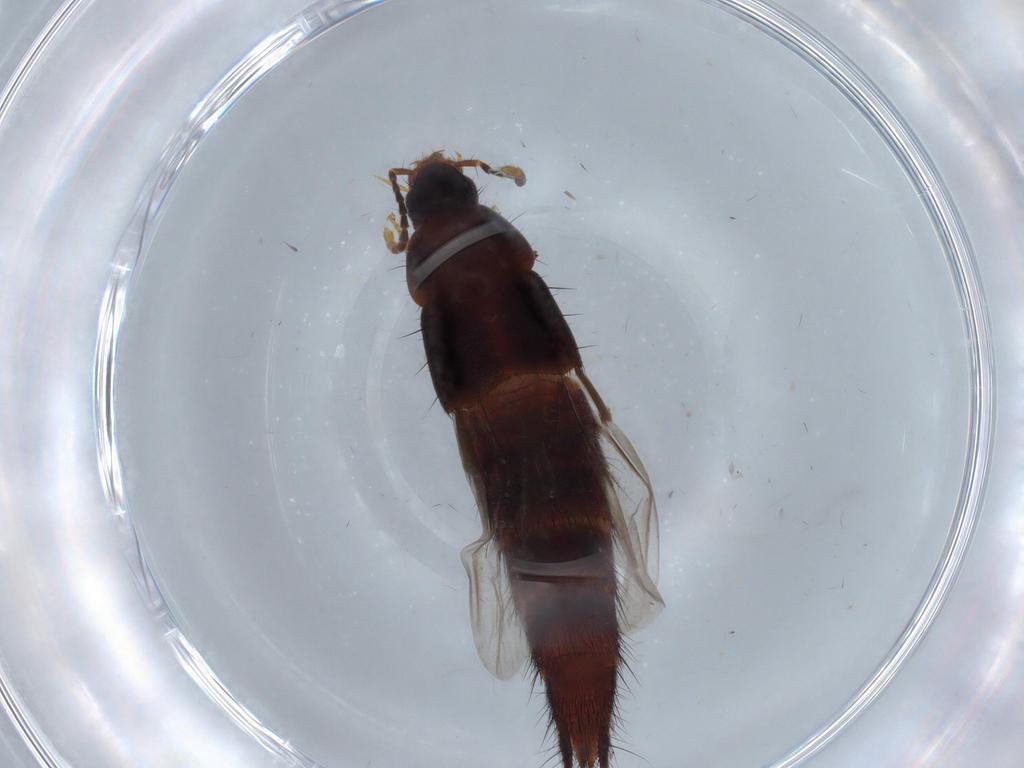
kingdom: Animalia
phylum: Arthropoda
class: Insecta
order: Coleoptera
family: Staphylinidae
